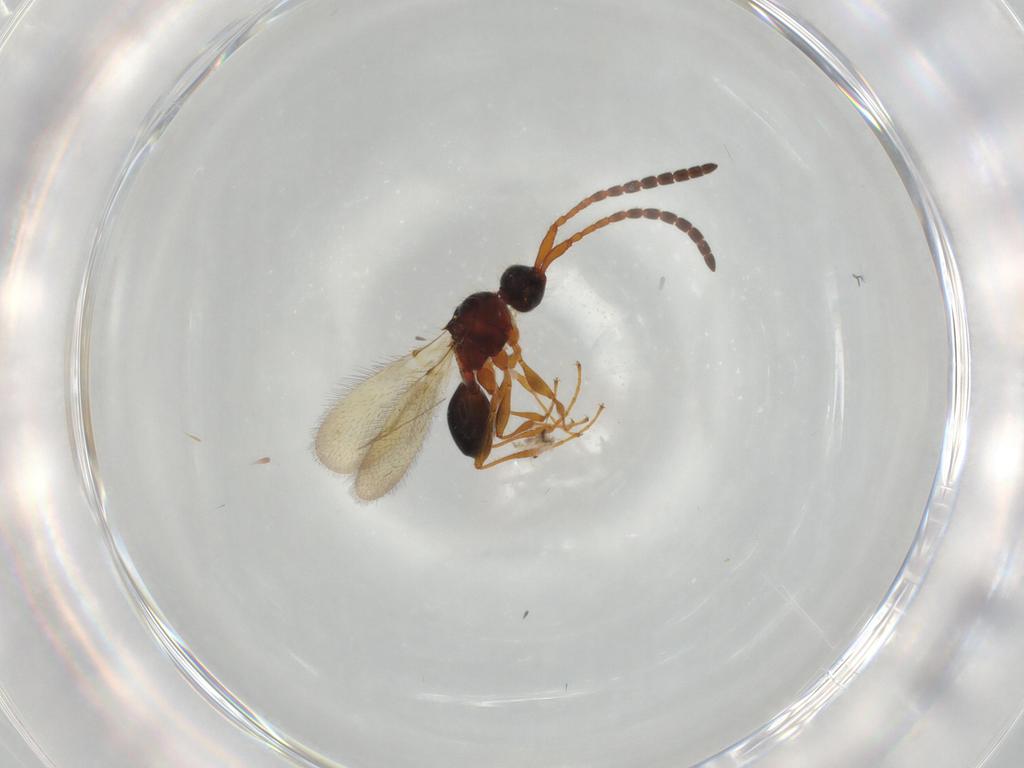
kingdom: Animalia
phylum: Arthropoda
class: Insecta
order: Hymenoptera
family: Diapriidae
